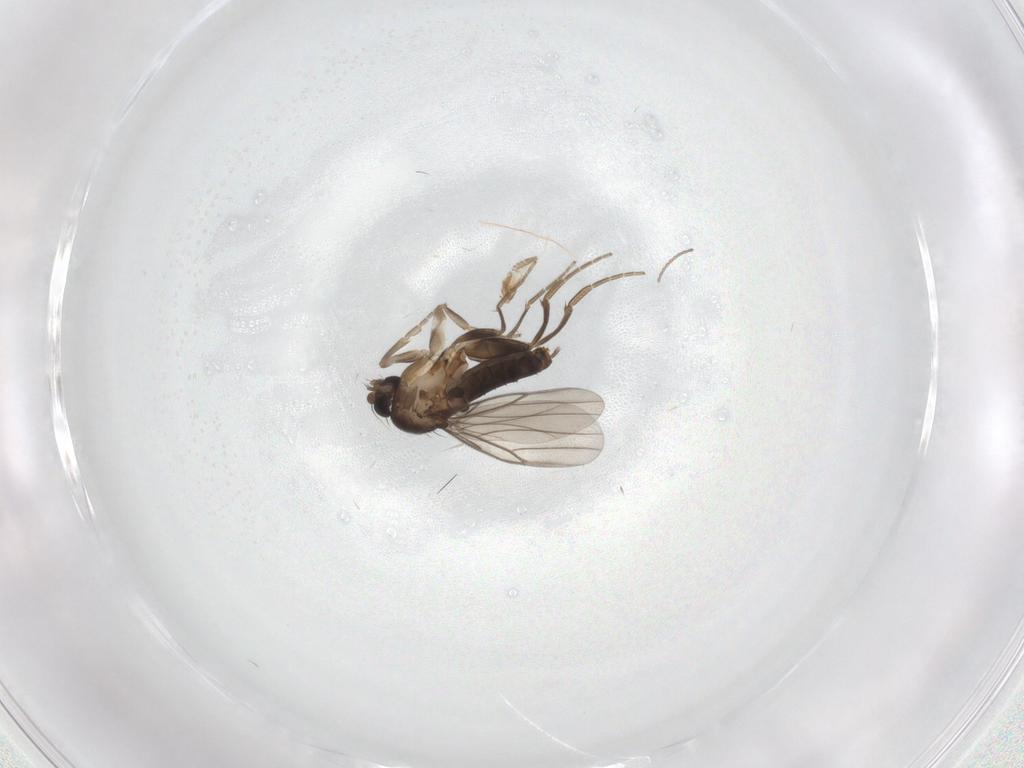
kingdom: Animalia
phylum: Arthropoda
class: Insecta
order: Diptera
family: Phoridae
